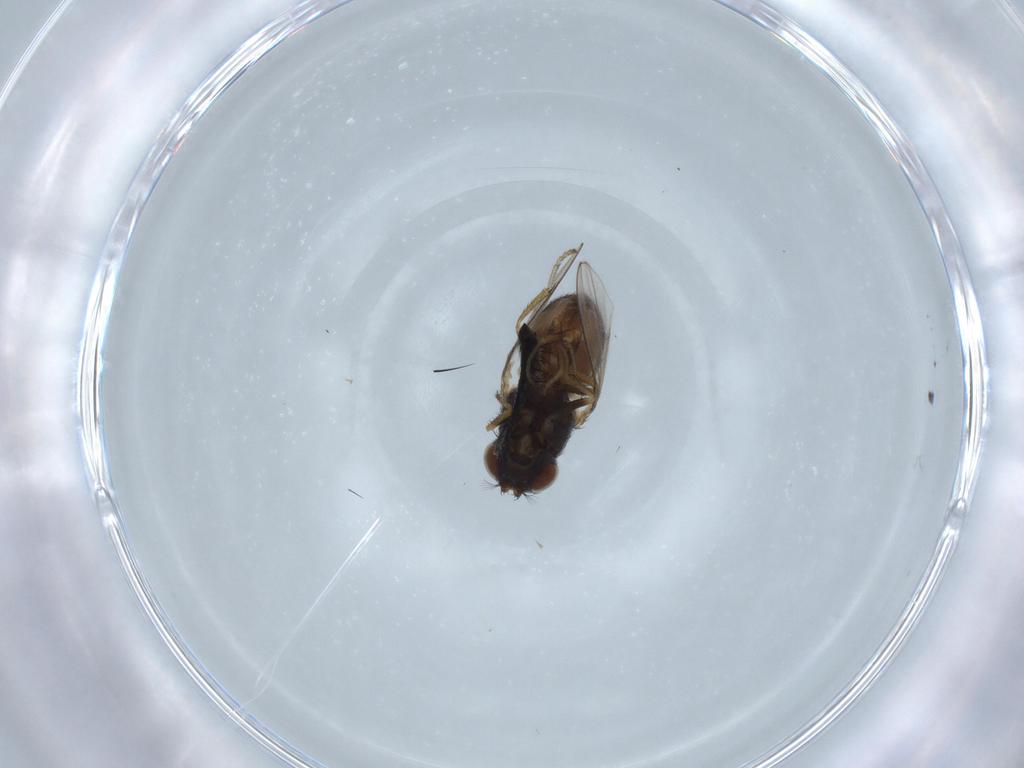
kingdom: Animalia
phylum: Arthropoda
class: Insecta
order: Diptera
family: Sarcophagidae
